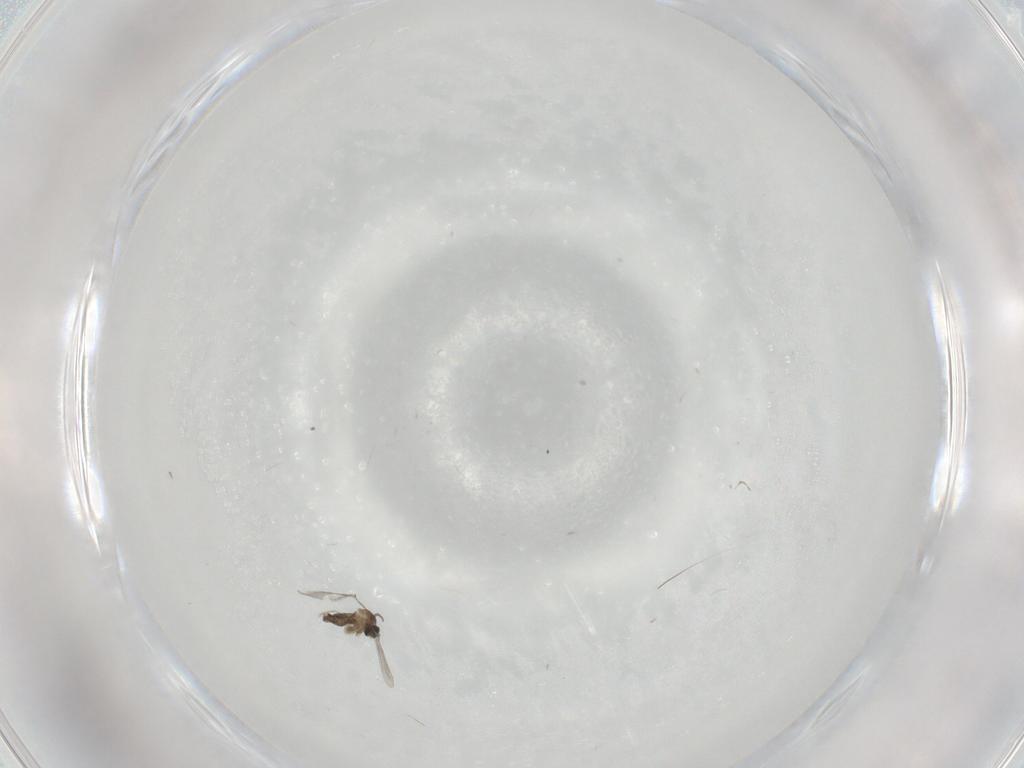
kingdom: Animalia
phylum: Arthropoda
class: Insecta
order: Diptera
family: Cecidomyiidae
